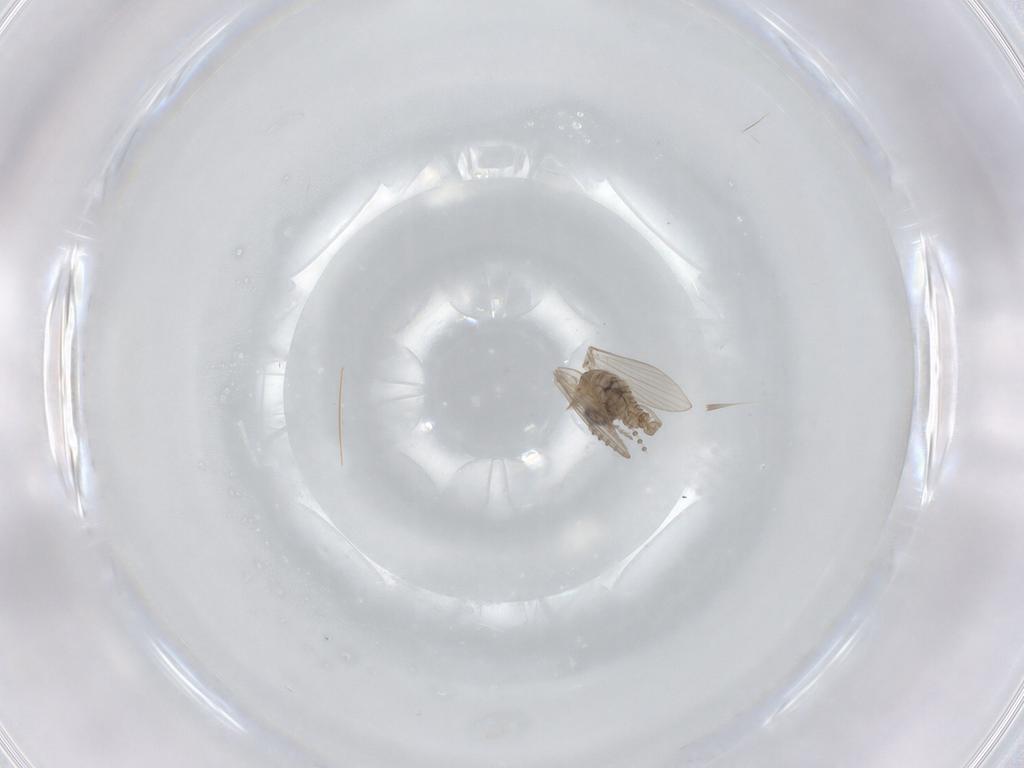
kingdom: Animalia
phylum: Arthropoda
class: Insecta
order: Diptera
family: Psychodidae
